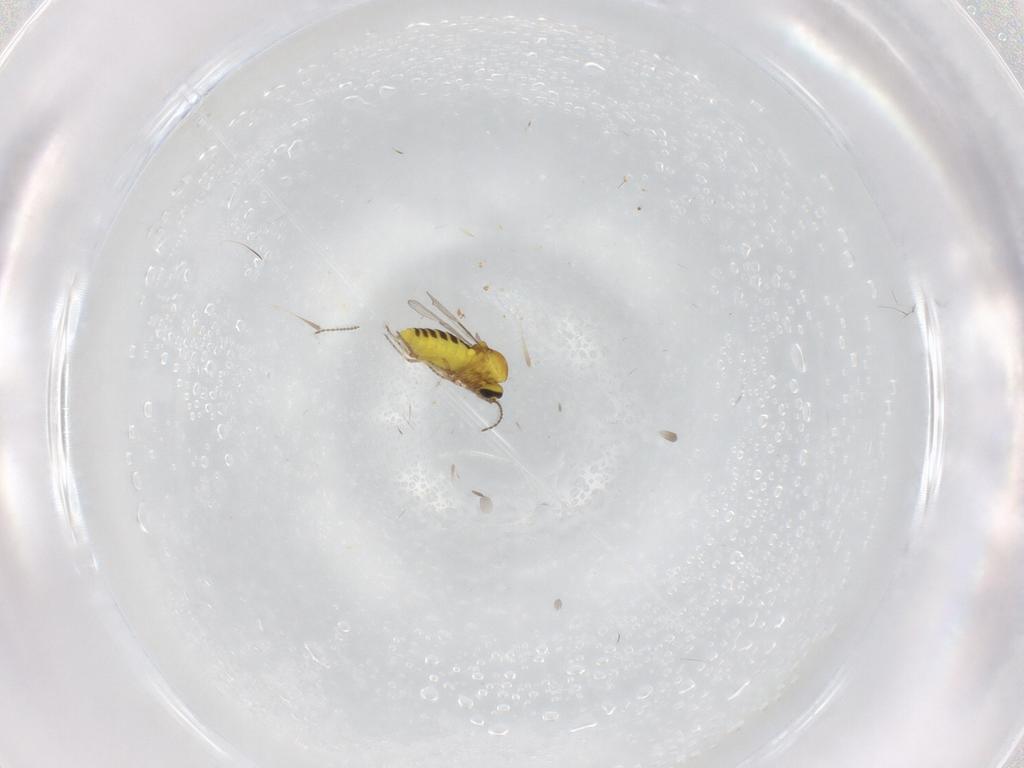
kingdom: Animalia
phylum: Arthropoda
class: Insecta
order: Diptera
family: Ceratopogonidae
